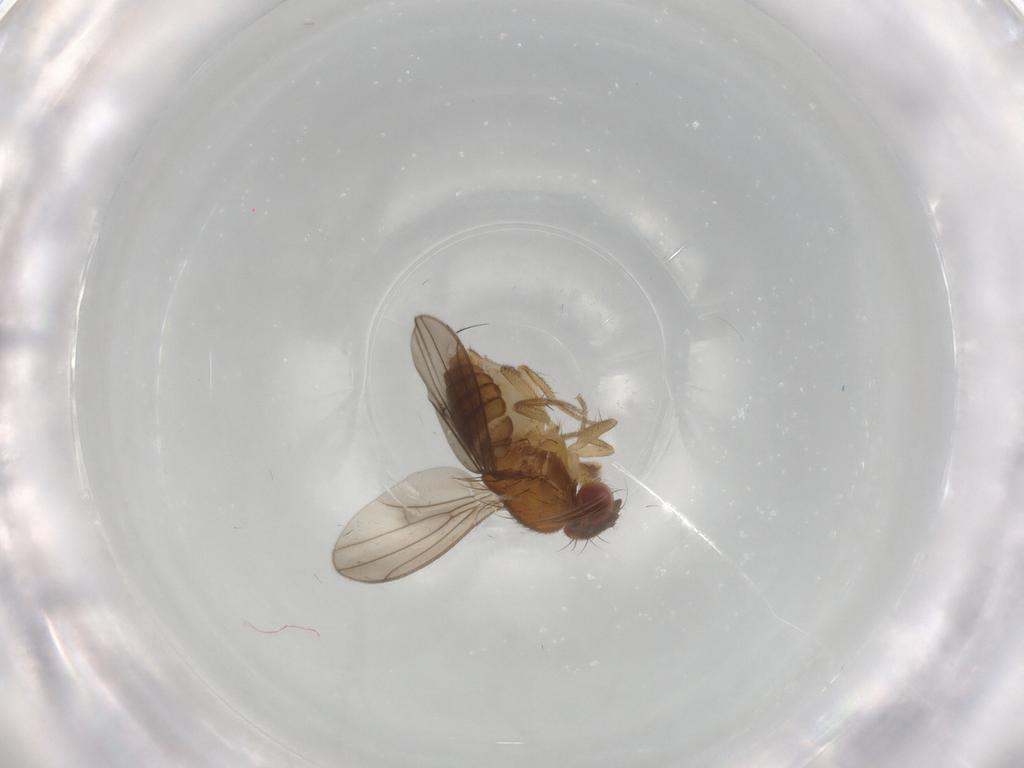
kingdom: Animalia
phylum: Arthropoda
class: Insecta
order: Diptera
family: Drosophilidae
